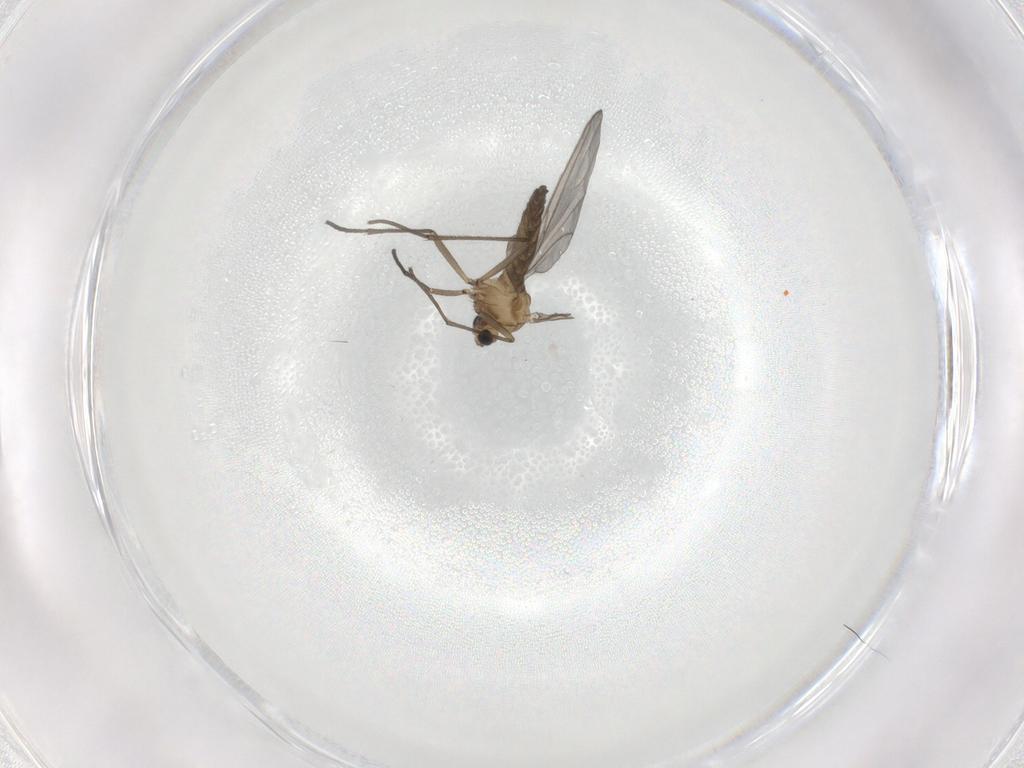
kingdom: Animalia
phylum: Arthropoda
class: Insecta
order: Diptera
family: Sciaridae
